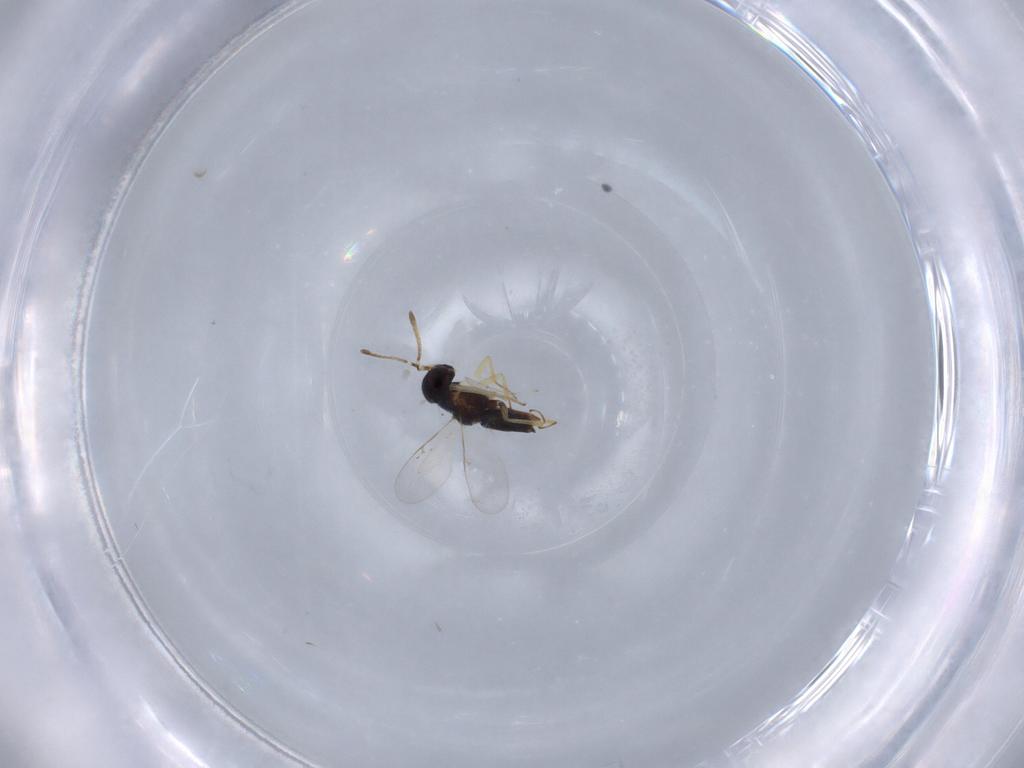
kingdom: Animalia
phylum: Arthropoda
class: Insecta
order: Hymenoptera
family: Encyrtidae
